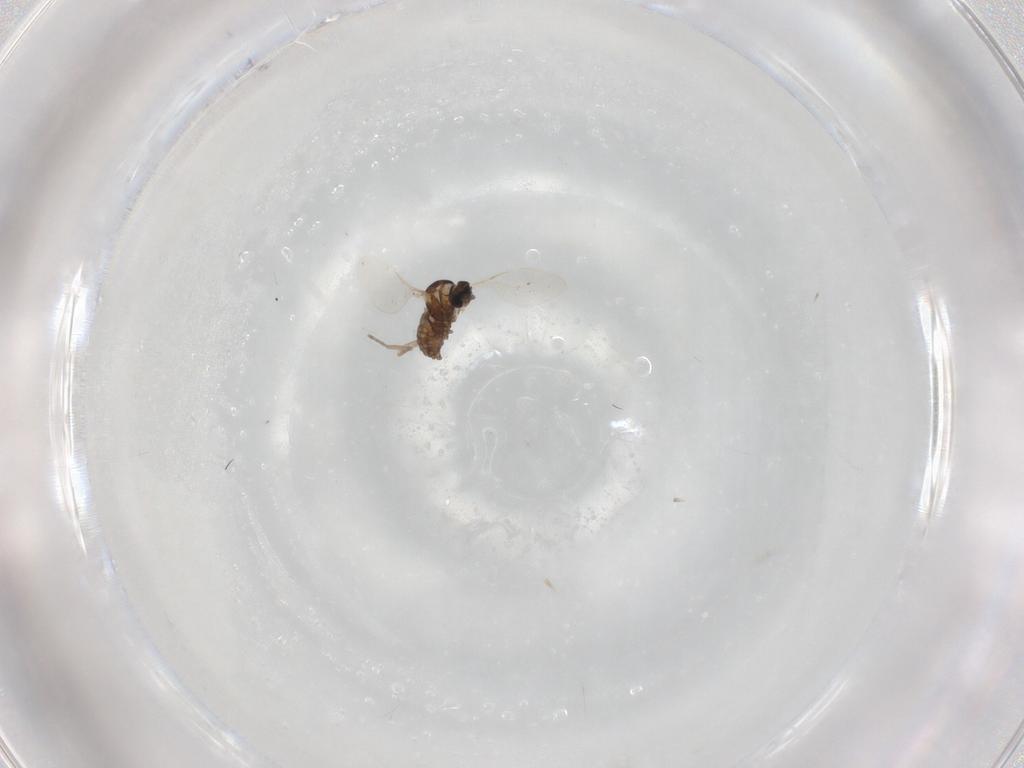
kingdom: Animalia
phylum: Arthropoda
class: Insecta
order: Diptera
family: Cecidomyiidae
